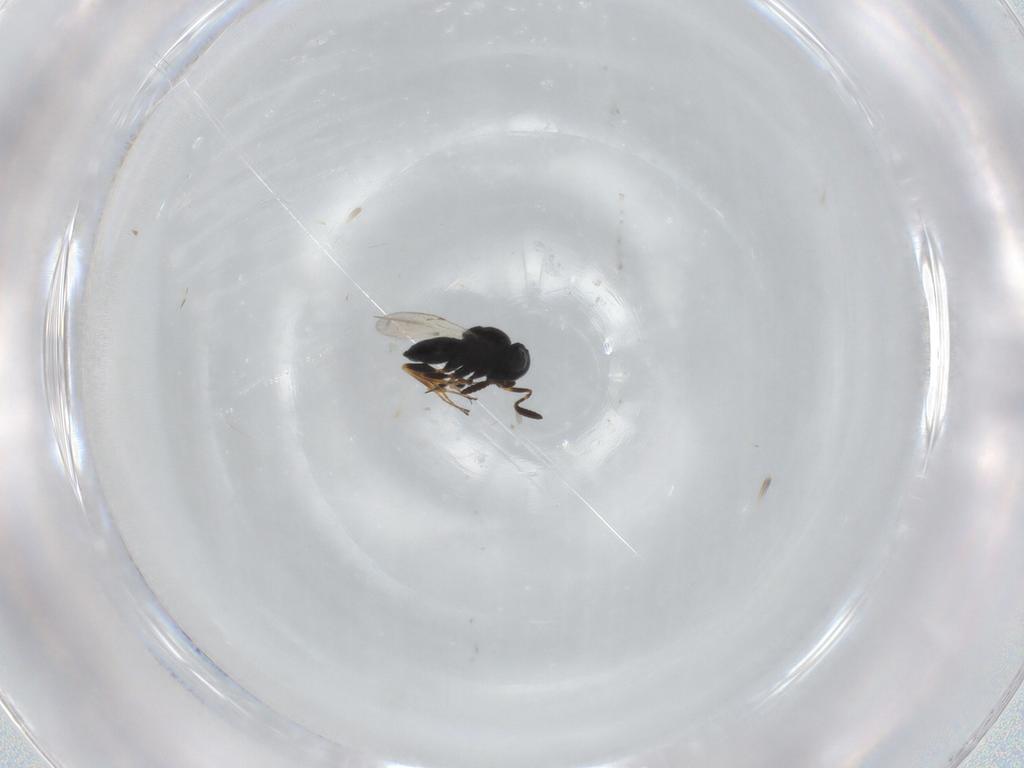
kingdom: Animalia
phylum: Arthropoda
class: Insecta
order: Coleoptera
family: Curculionidae
